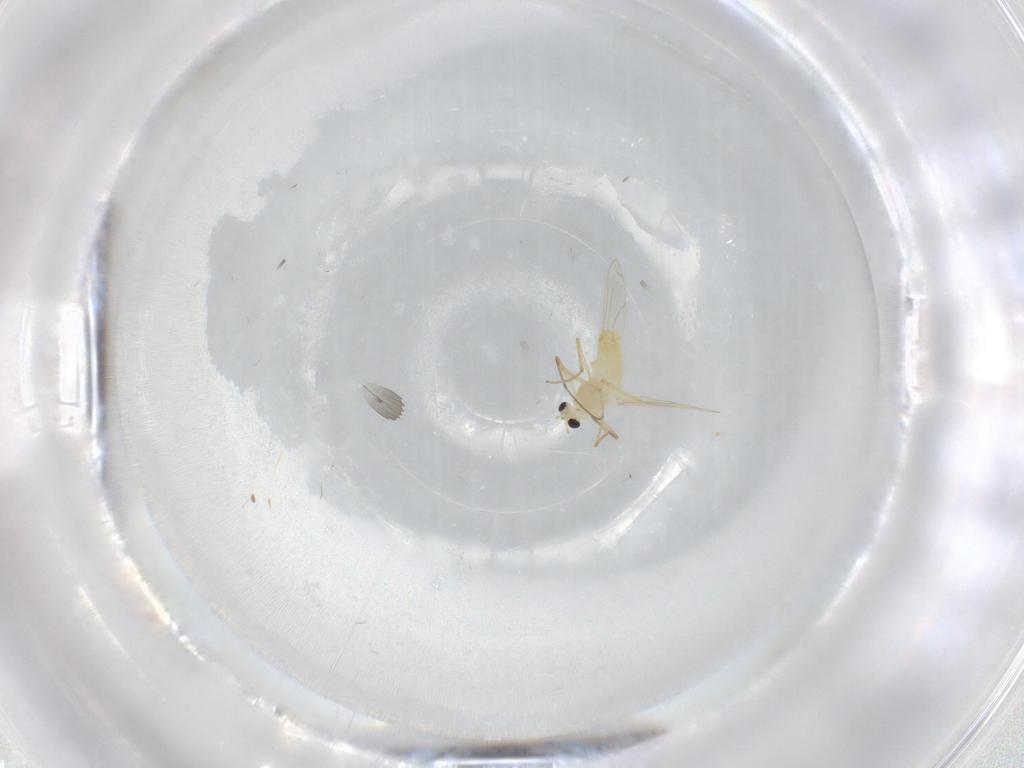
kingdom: Animalia
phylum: Arthropoda
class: Insecta
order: Diptera
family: Chironomidae
